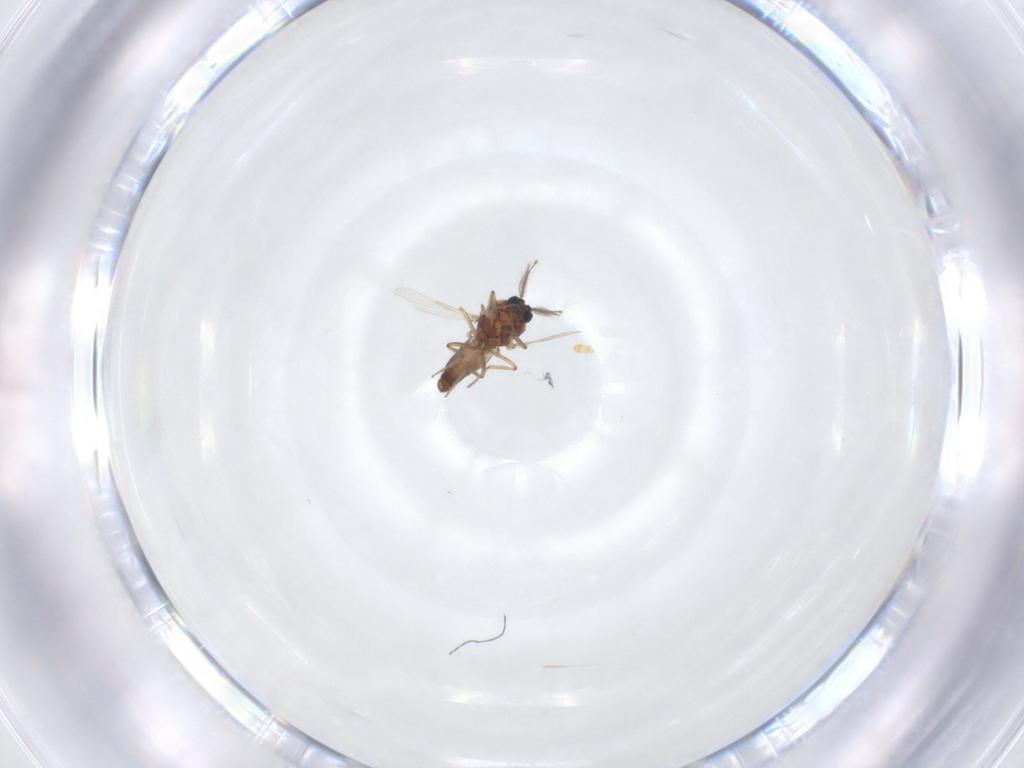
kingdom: Animalia
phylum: Arthropoda
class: Insecta
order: Diptera
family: Ceratopogonidae
